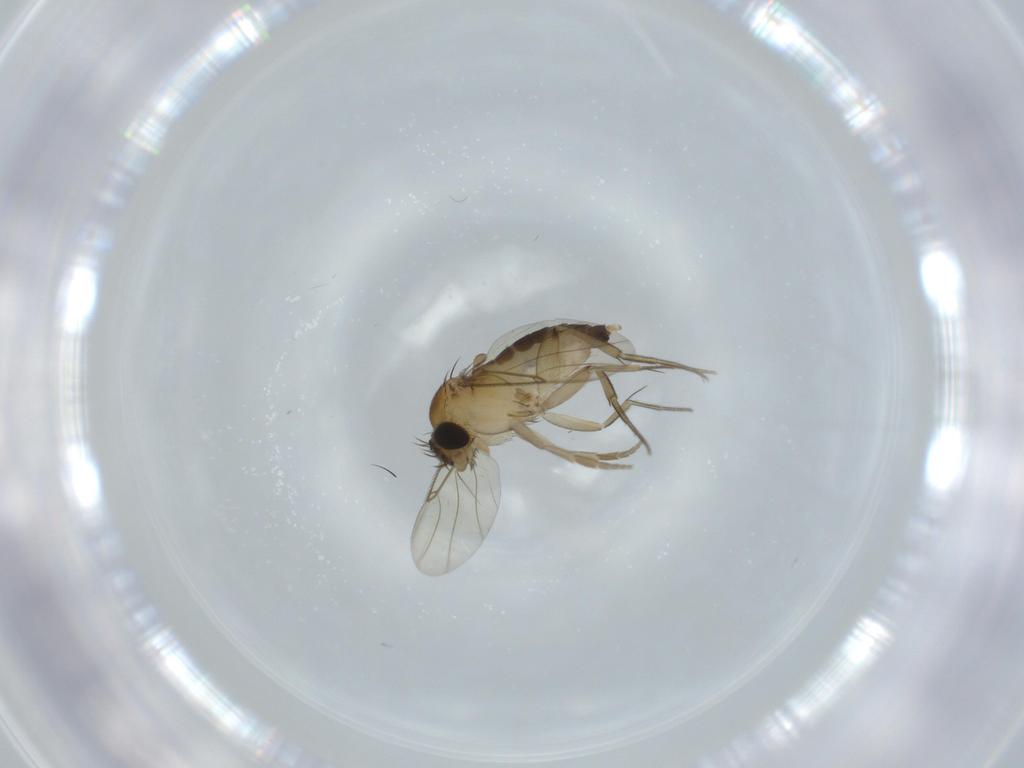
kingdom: Animalia
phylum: Arthropoda
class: Insecta
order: Diptera
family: Phoridae
